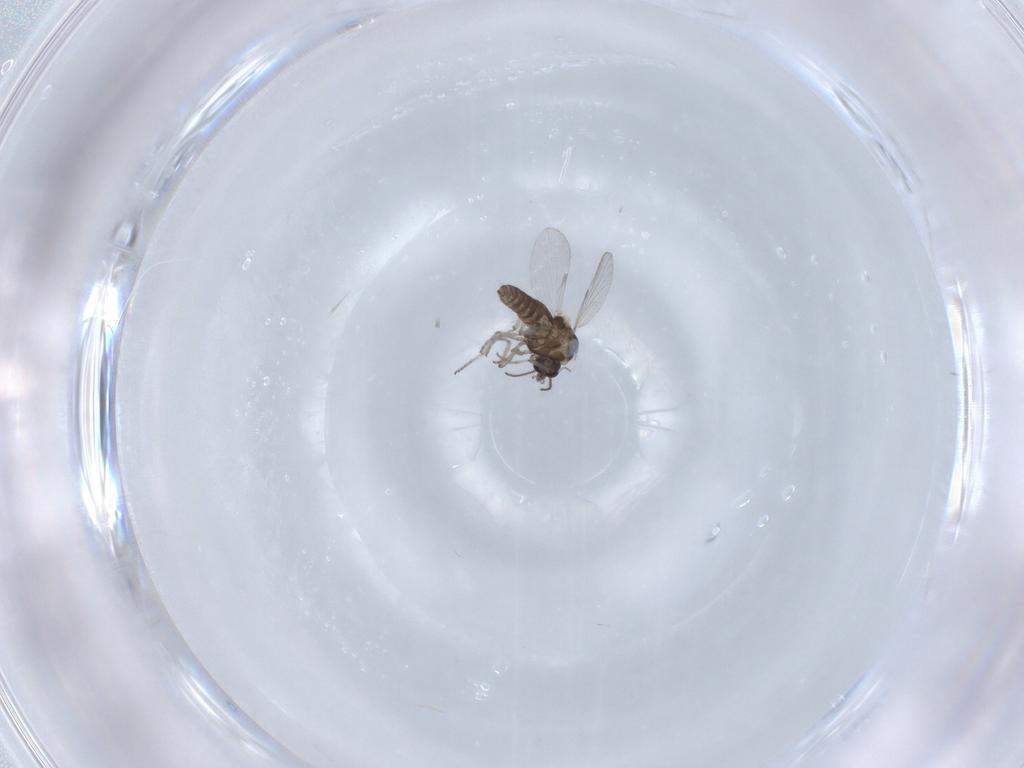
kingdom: Animalia
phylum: Arthropoda
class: Insecta
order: Diptera
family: Ceratopogonidae
